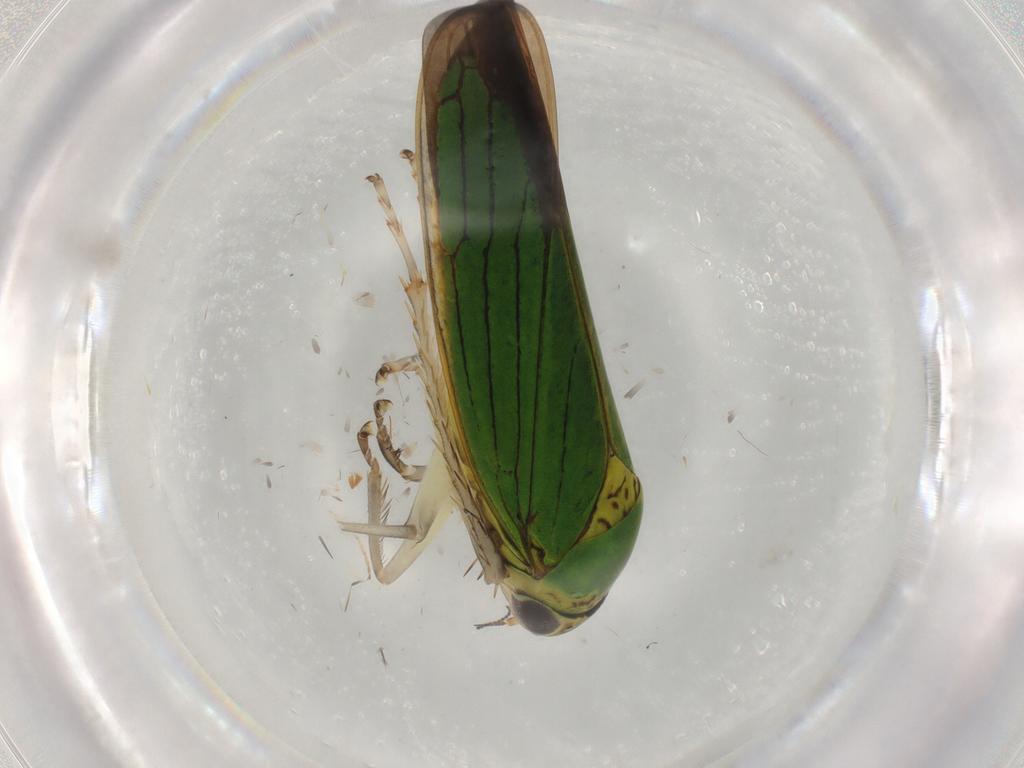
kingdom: Animalia
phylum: Arthropoda
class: Insecta
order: Hemiptera
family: Cicadellidae
